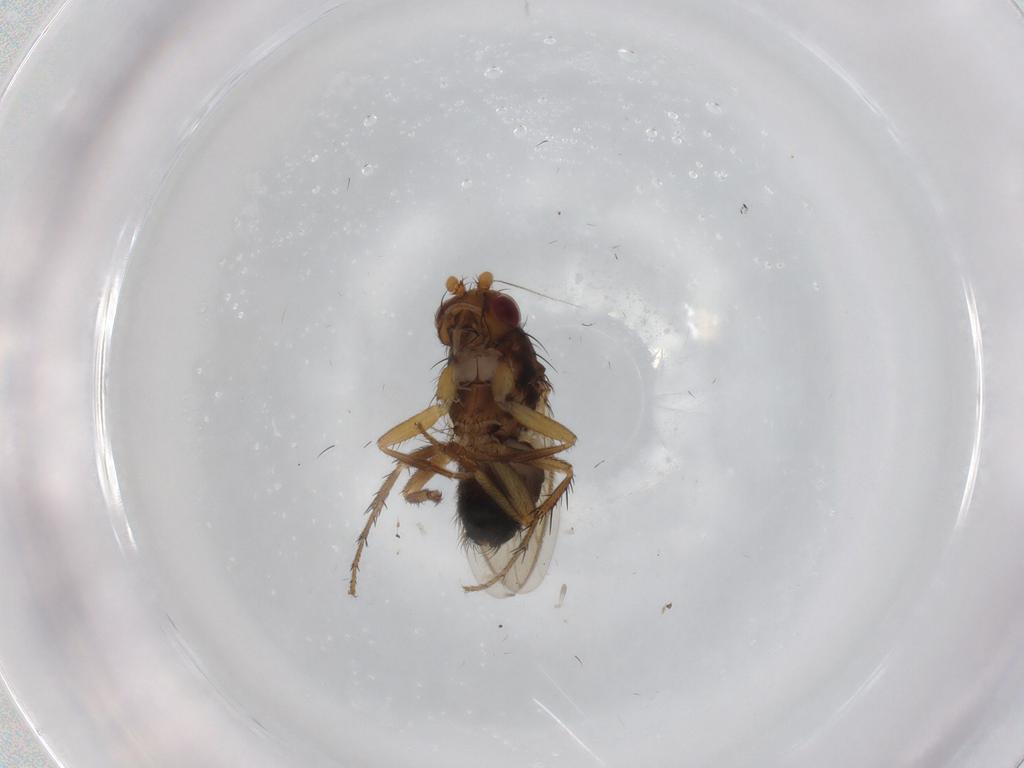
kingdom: Animalia
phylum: Arthropoda
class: Insecta
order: Diptera
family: Sphaeroceridae
